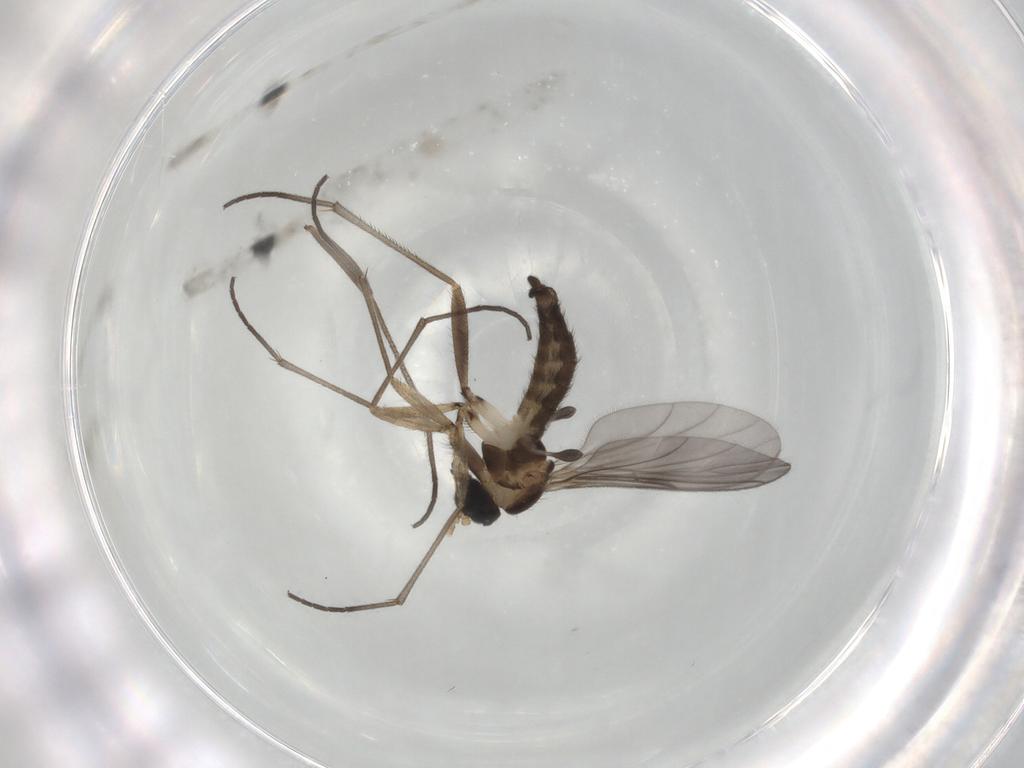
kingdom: Animalia
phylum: Arthropoda
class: Insecta
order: Diptera
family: Sciaridae
